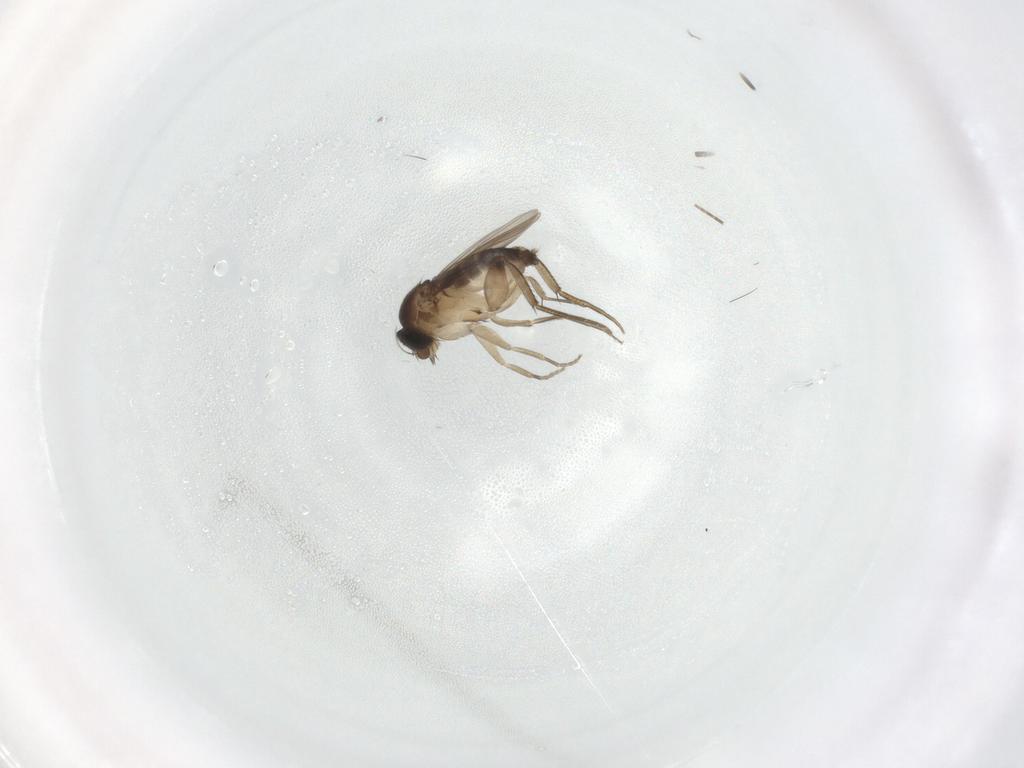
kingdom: Animalia
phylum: Arthropoda
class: Insecta
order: Diptera
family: Phoridae
